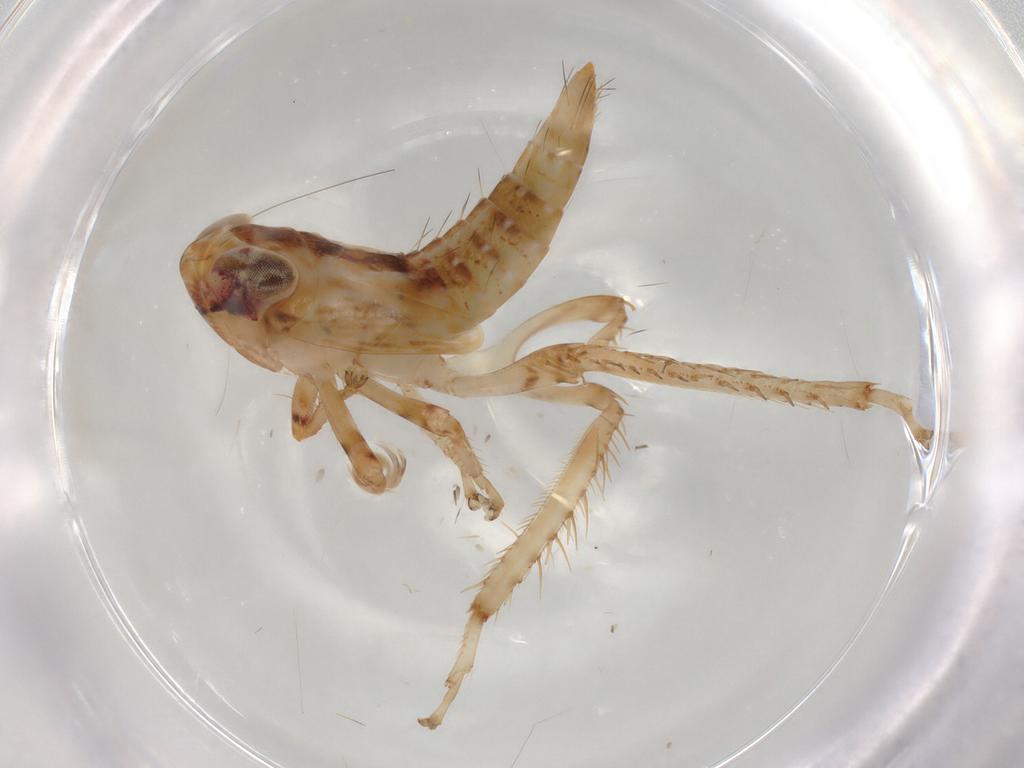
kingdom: Animalia
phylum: Arthropoda
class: Insecta
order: Hemiptera
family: Cicadellidae
